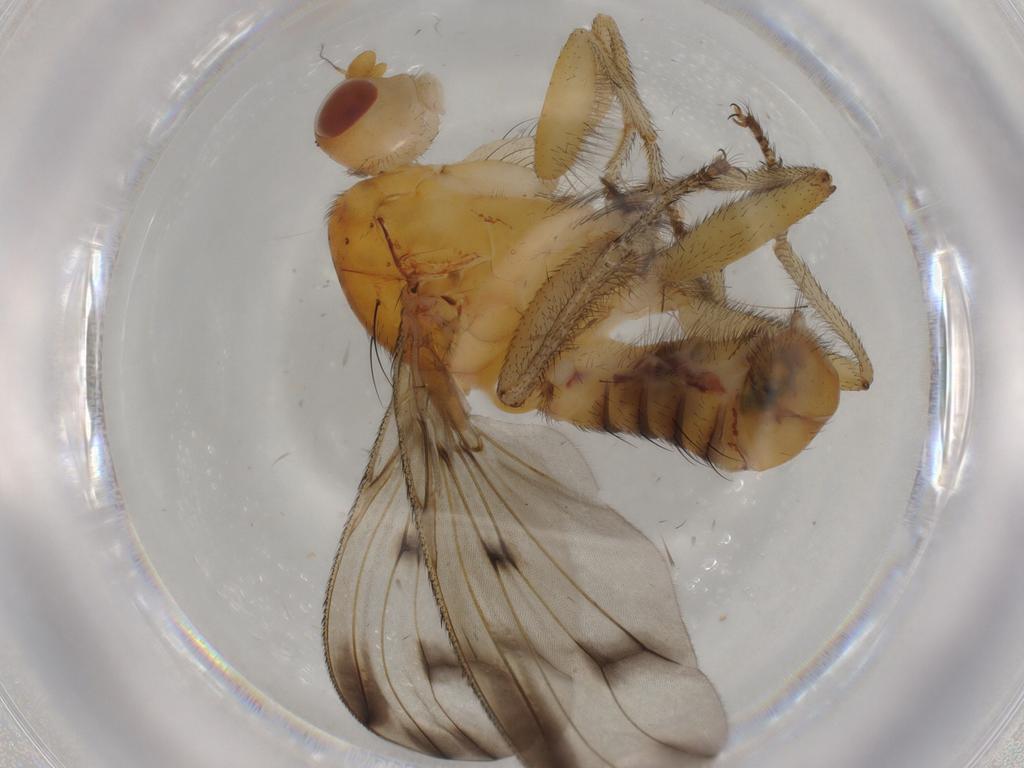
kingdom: Animalia
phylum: Arthropoda
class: Insecta
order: Diptera
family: Heleomyzidae
